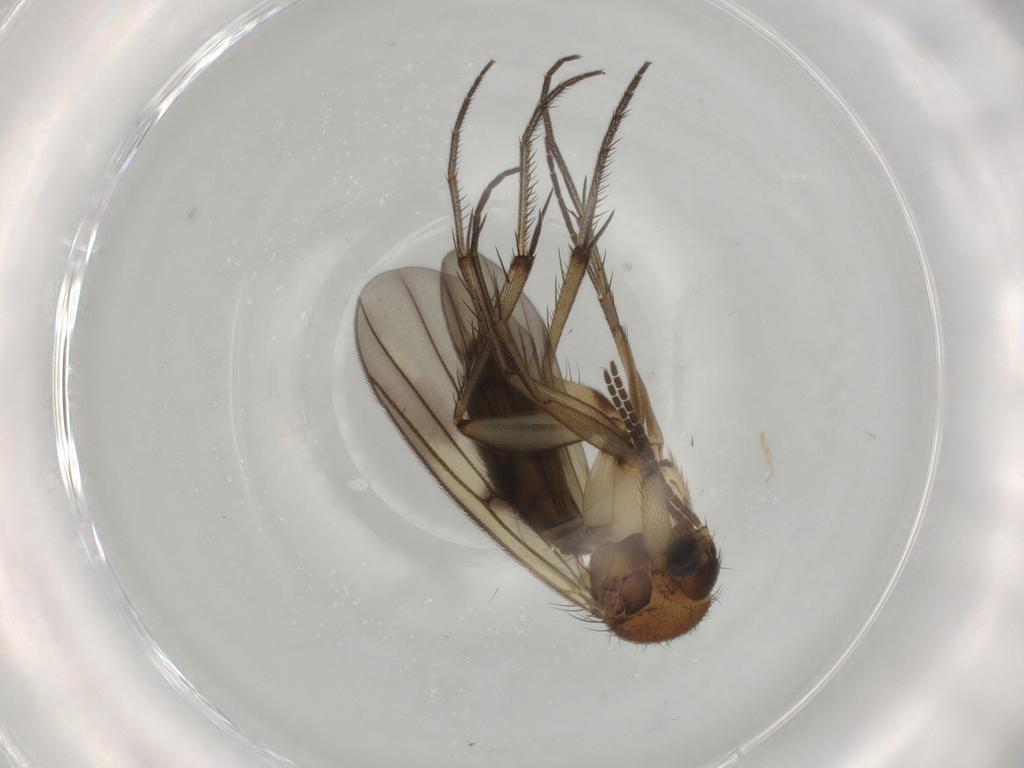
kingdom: Animalia
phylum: Arthropoda
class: Insecta
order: Diptera
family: Mycetophilidae
